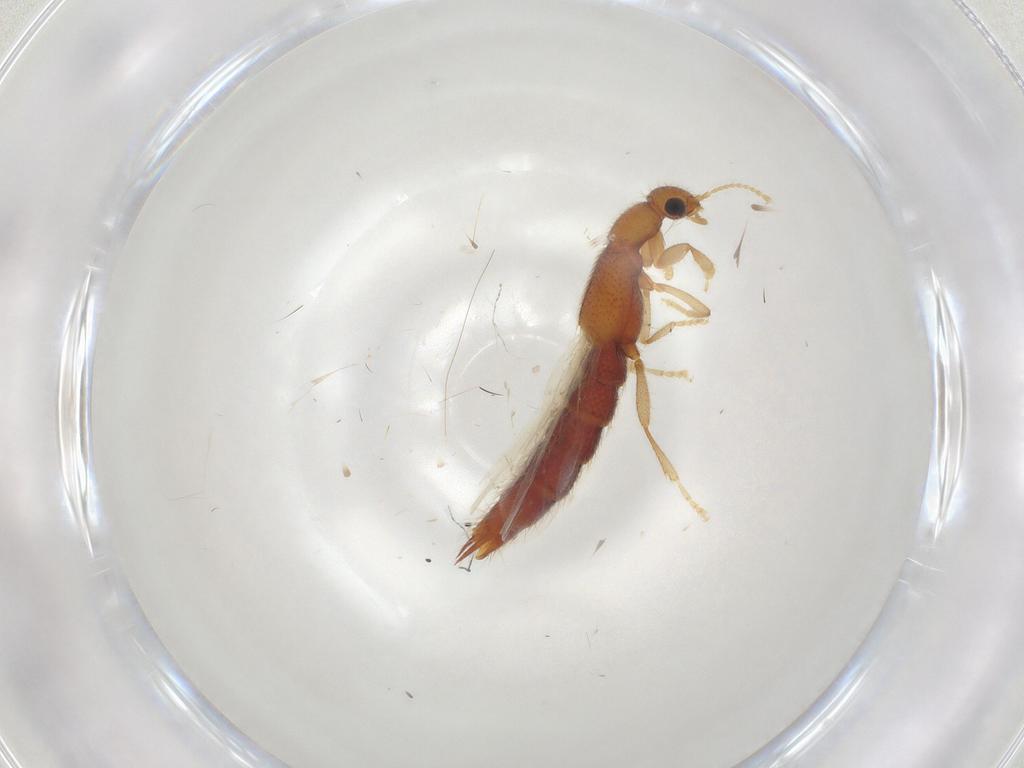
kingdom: Animalia
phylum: Arthropoda
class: Insecta
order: Coleoptera
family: Staphylinidae
